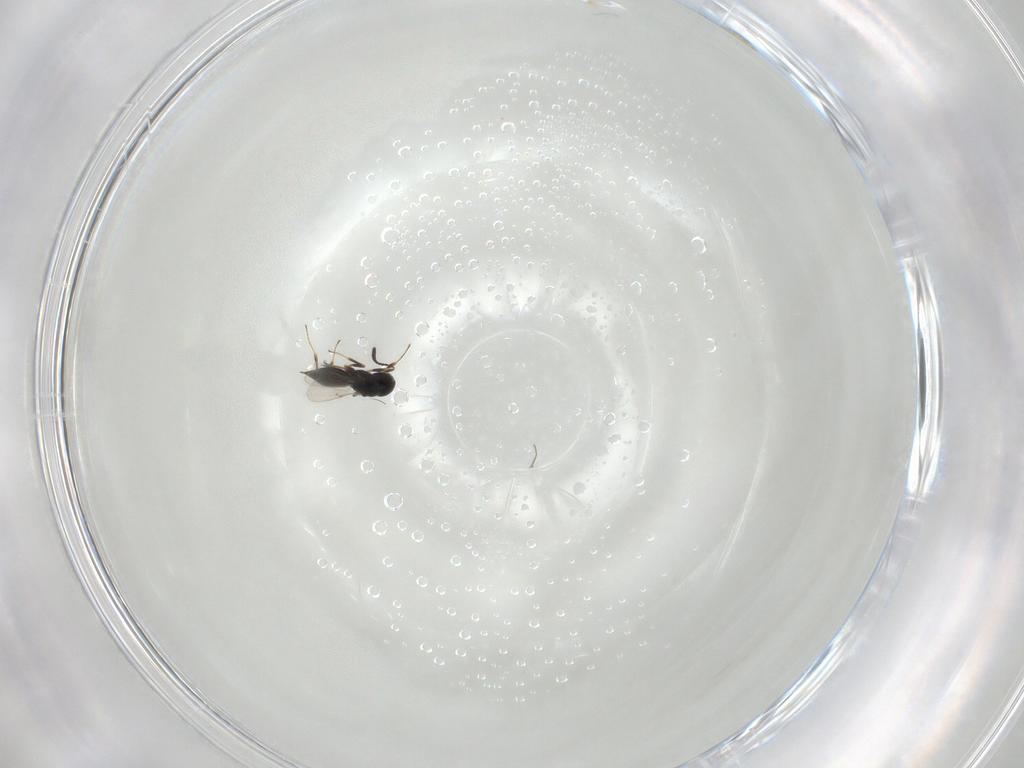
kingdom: Animalia
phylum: Arthropoda
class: Insecta
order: Hymenoptera
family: Scelionidae
